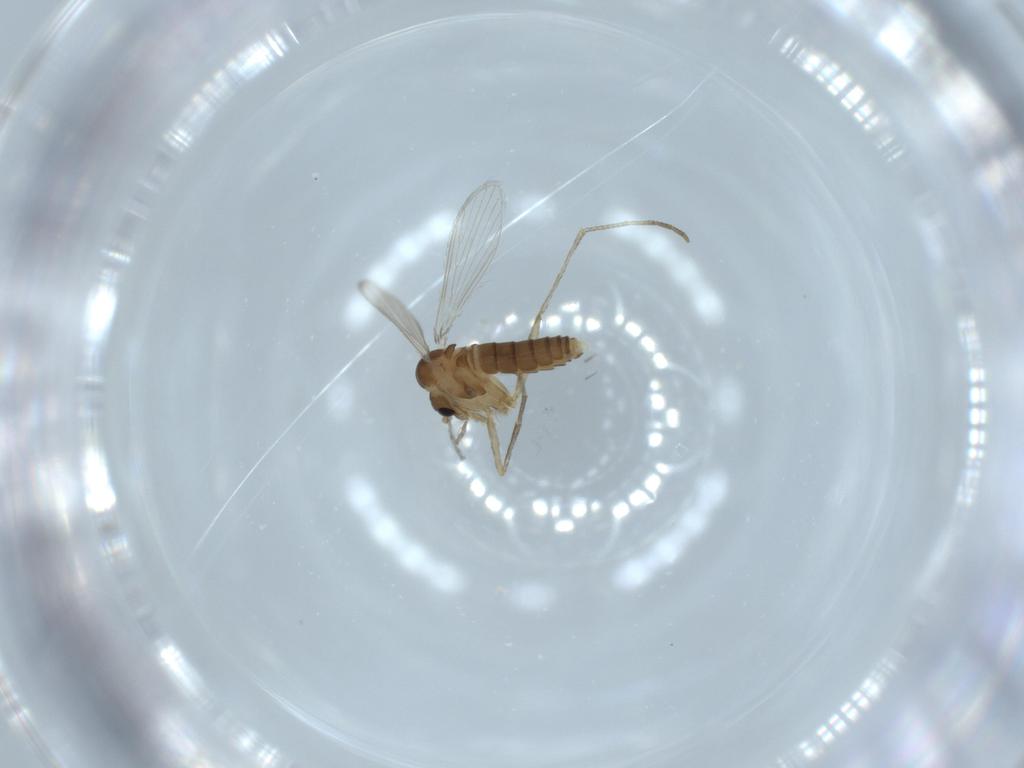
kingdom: Animalia
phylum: Arthropoda
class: Insecta
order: Diptera
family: Psychodidae
